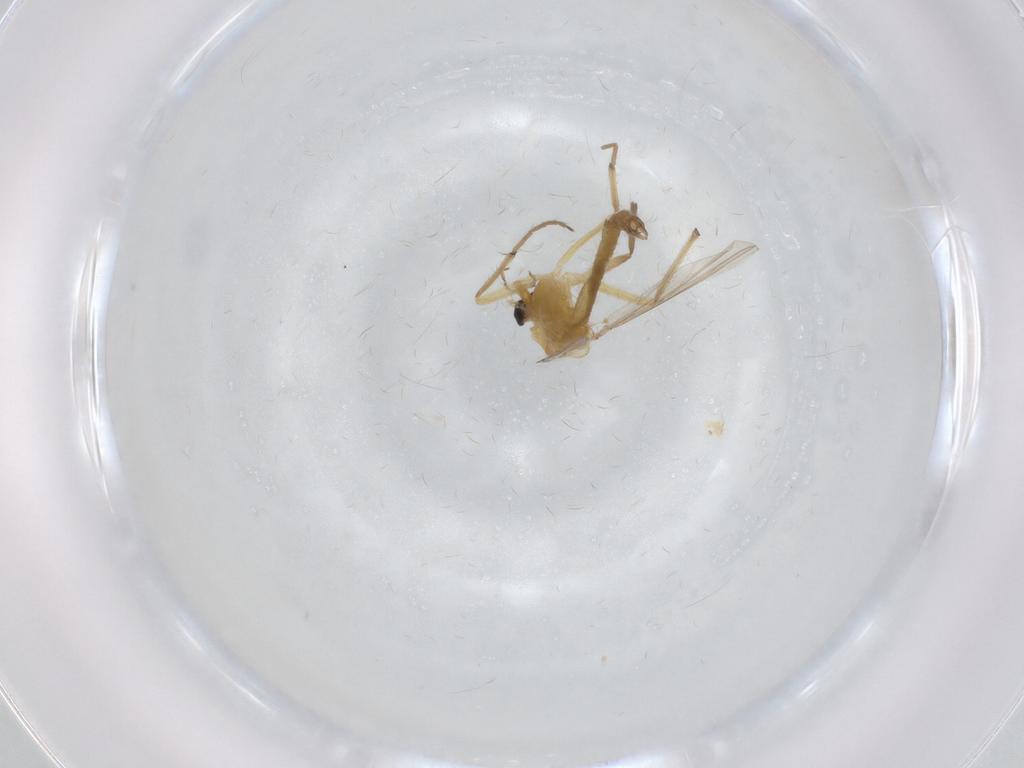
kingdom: Animalia
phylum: Arthropoda
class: Insecta
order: Diptera
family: Chironomidae
